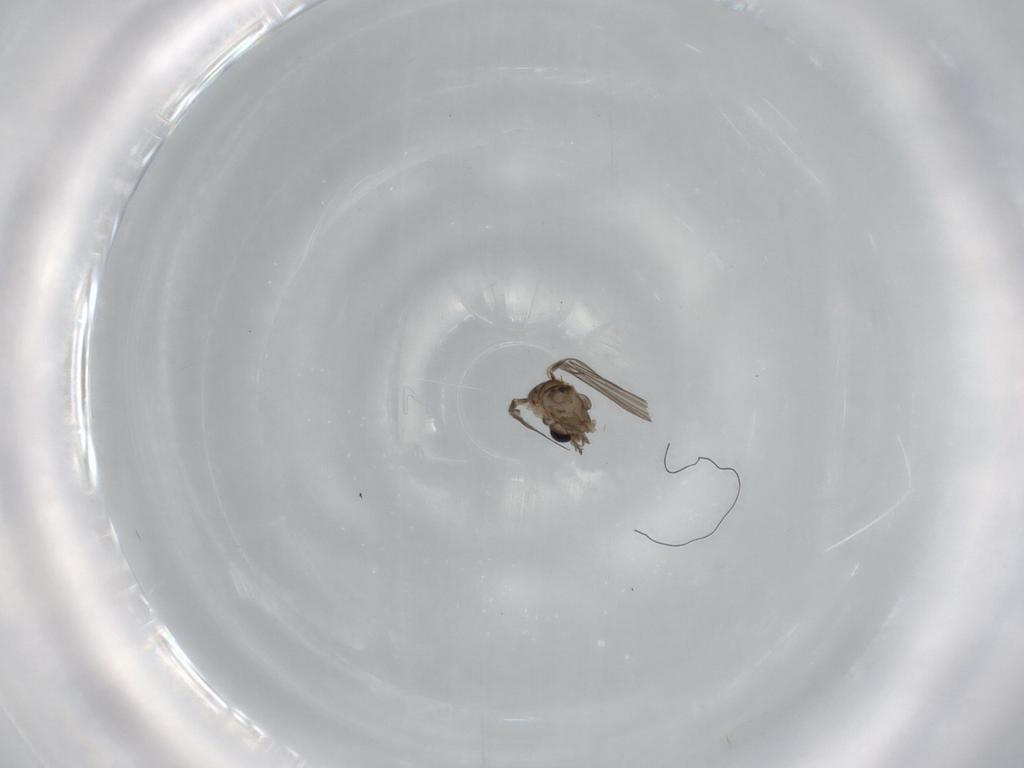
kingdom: Animalia
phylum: Arthropoda
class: Insecta
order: Diptera
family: Psychodidae
